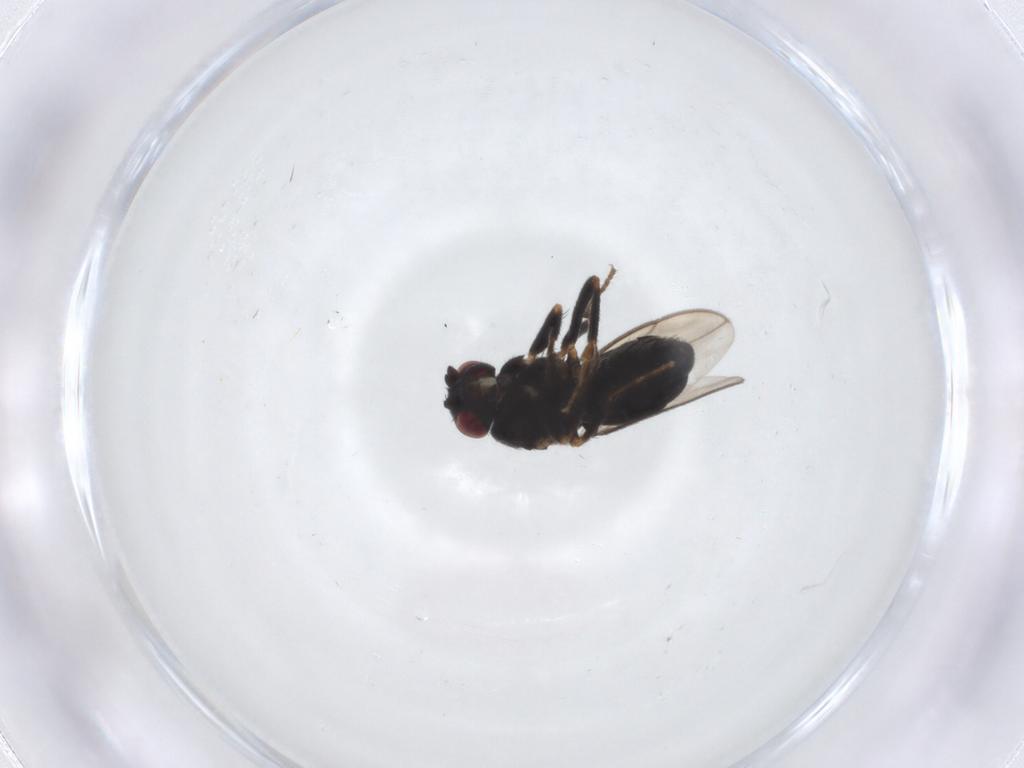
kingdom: Animalia
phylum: Arthropoda
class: Insecta
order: Diptera
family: Sphaeroceridae
